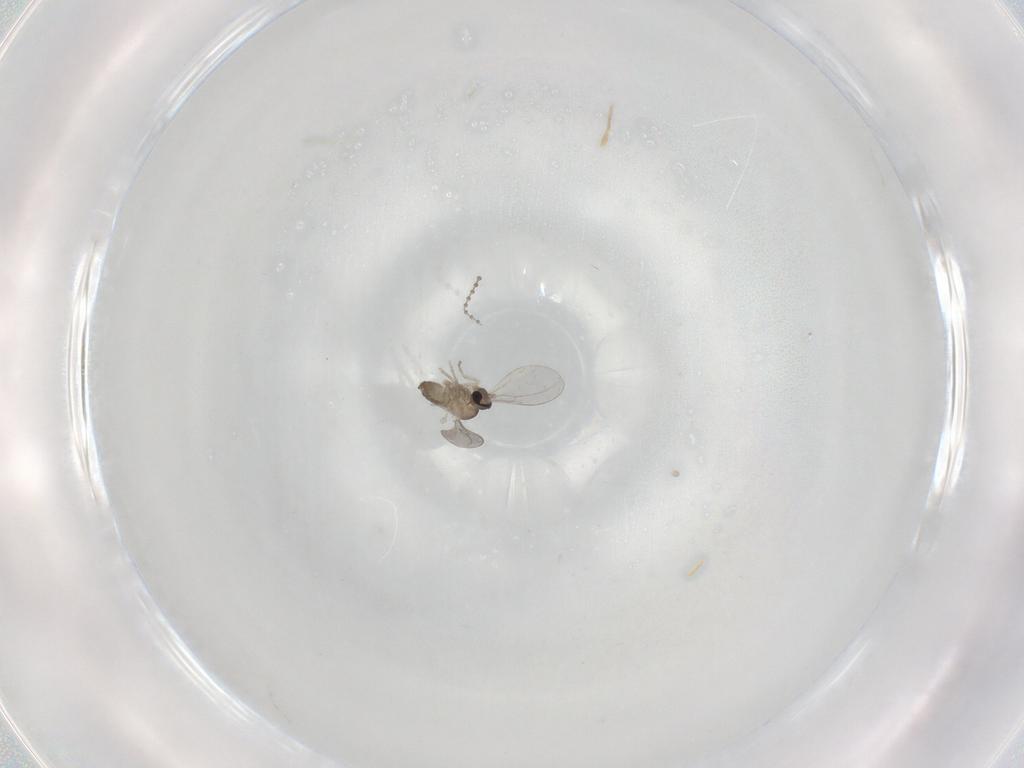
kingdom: Animalia
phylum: Arthropoda
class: Insecta
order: Diptera
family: Cecidomyiidae
